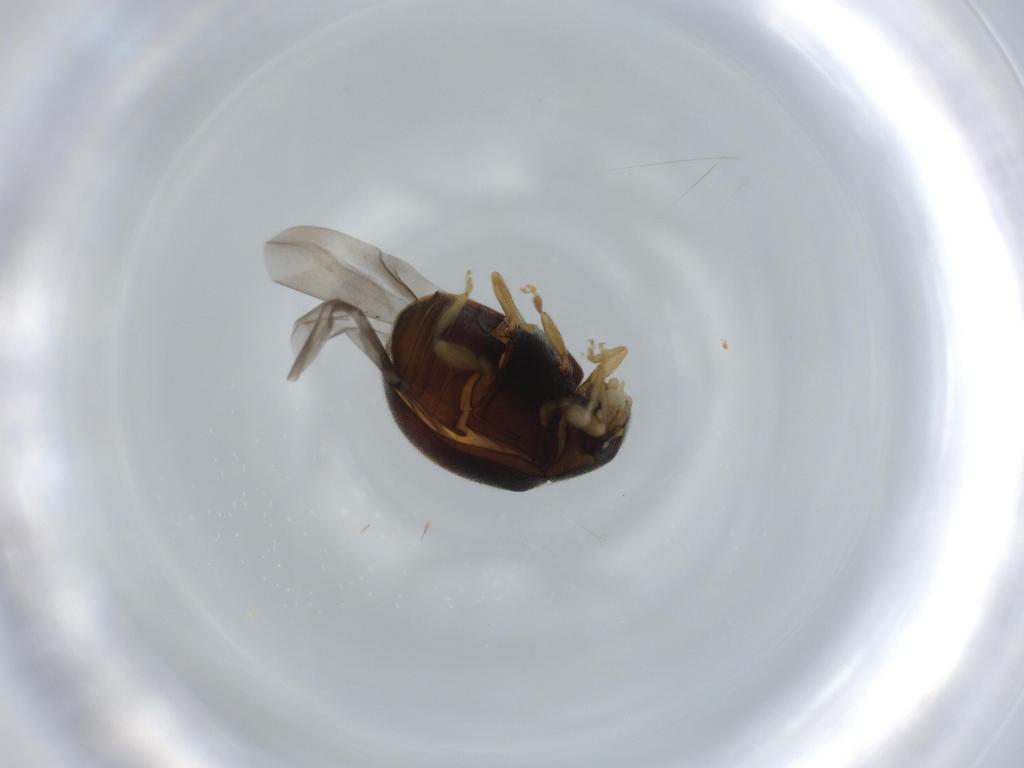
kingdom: Animalia
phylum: Arthropoda
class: Insecta
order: Coleoptera
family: Coccinellidae
